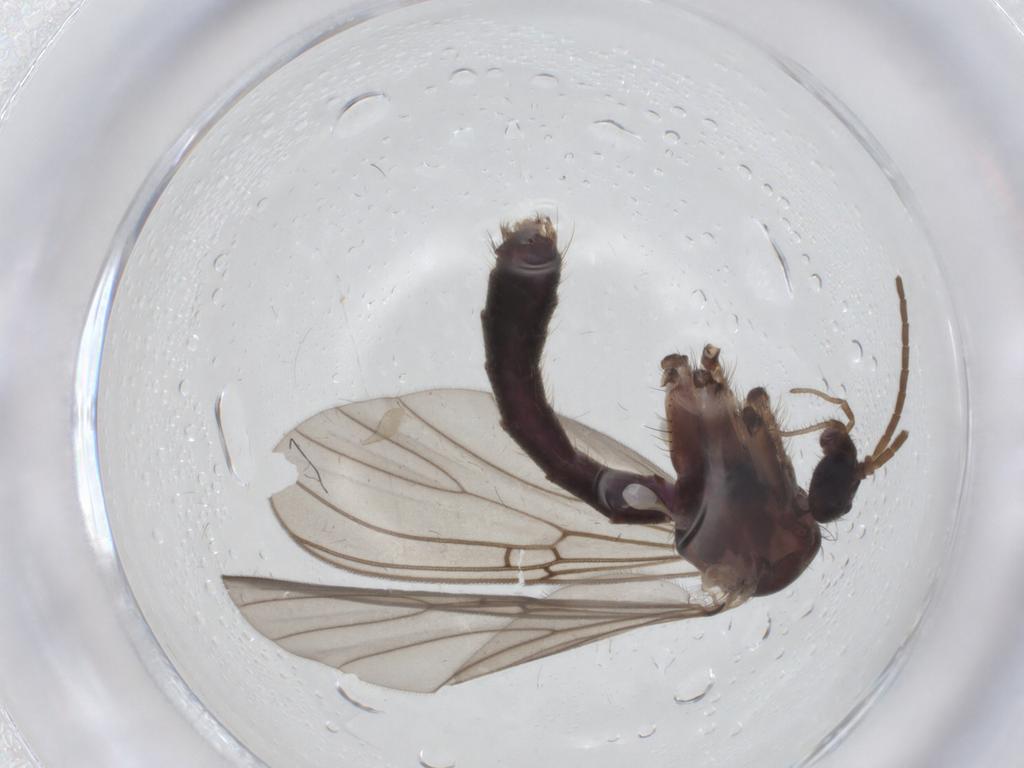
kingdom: Animalia
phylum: Arthropoda
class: Insecta
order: Diptera
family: Chironomidae
